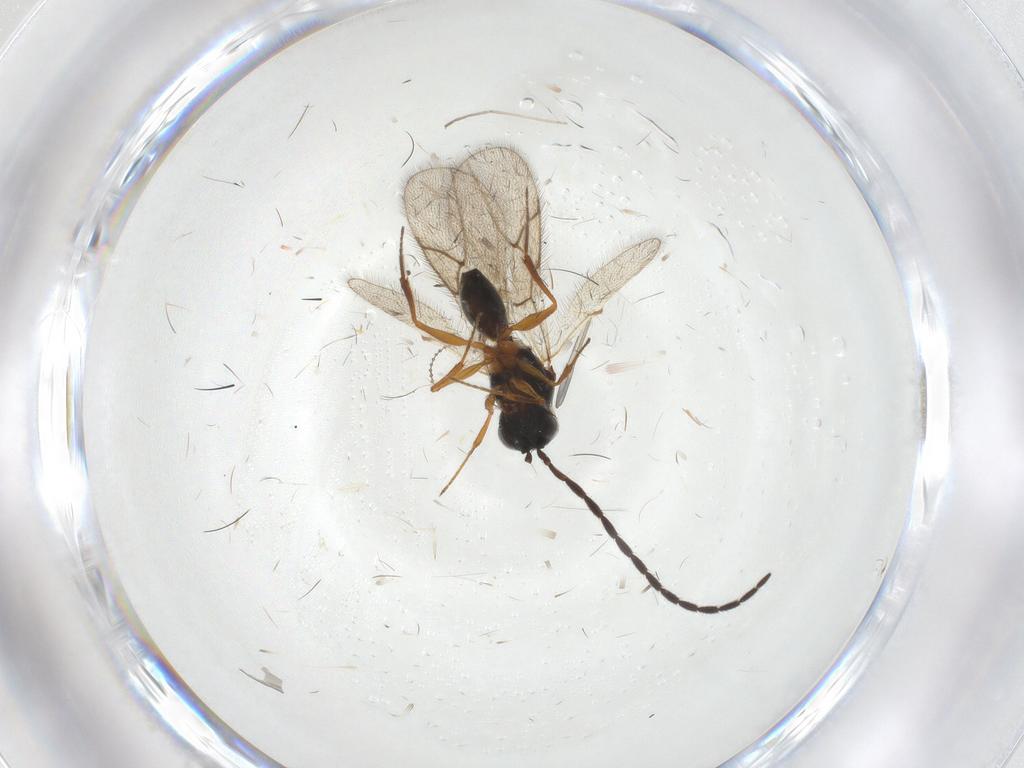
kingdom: Animalia
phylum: Arthropoda
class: Insecta
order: Hymenoptera
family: Figitidae
